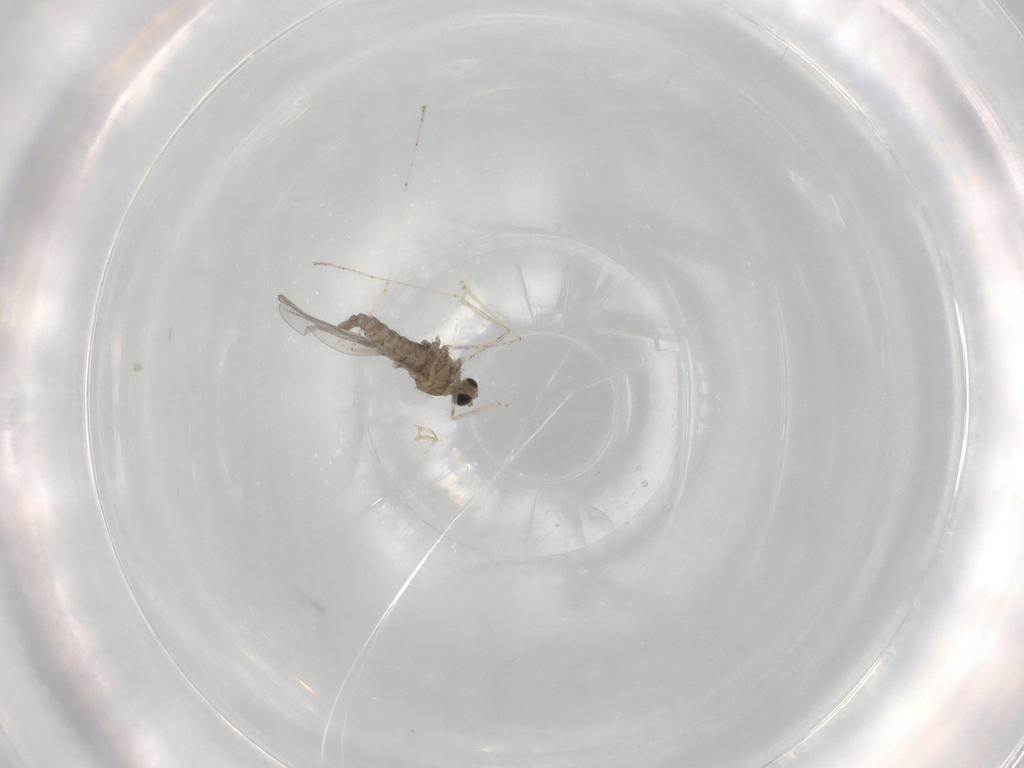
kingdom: Animalia
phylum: Arthropoda
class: Insecta
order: Diptera
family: Cecidomyiidae
